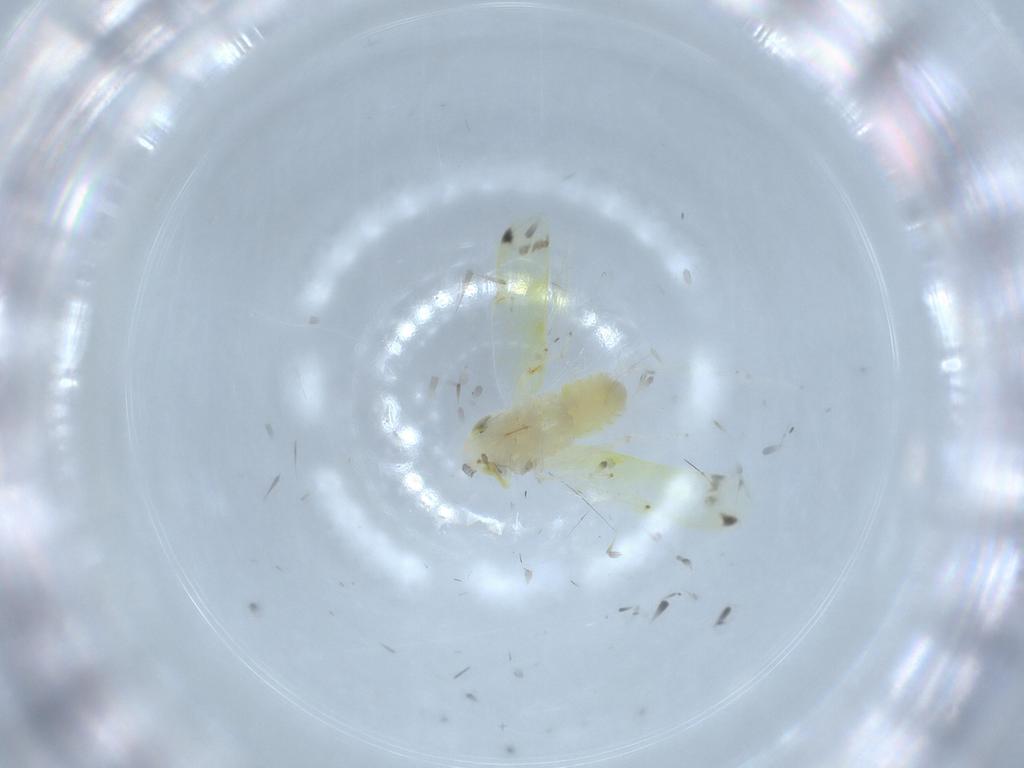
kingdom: Animalia
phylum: Arthropoda
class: Insecta
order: Hemiptera
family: Cicadellidae
